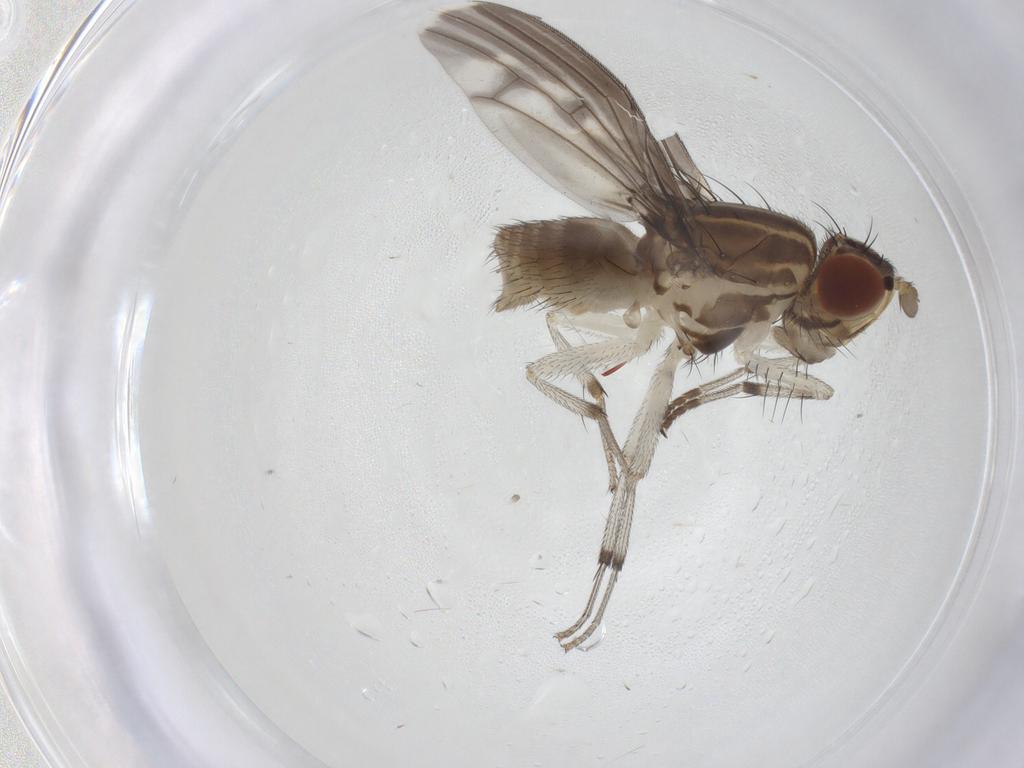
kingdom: Animalia
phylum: Arthropoda
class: Insecta
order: Diptera
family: Cecidomyiidae
